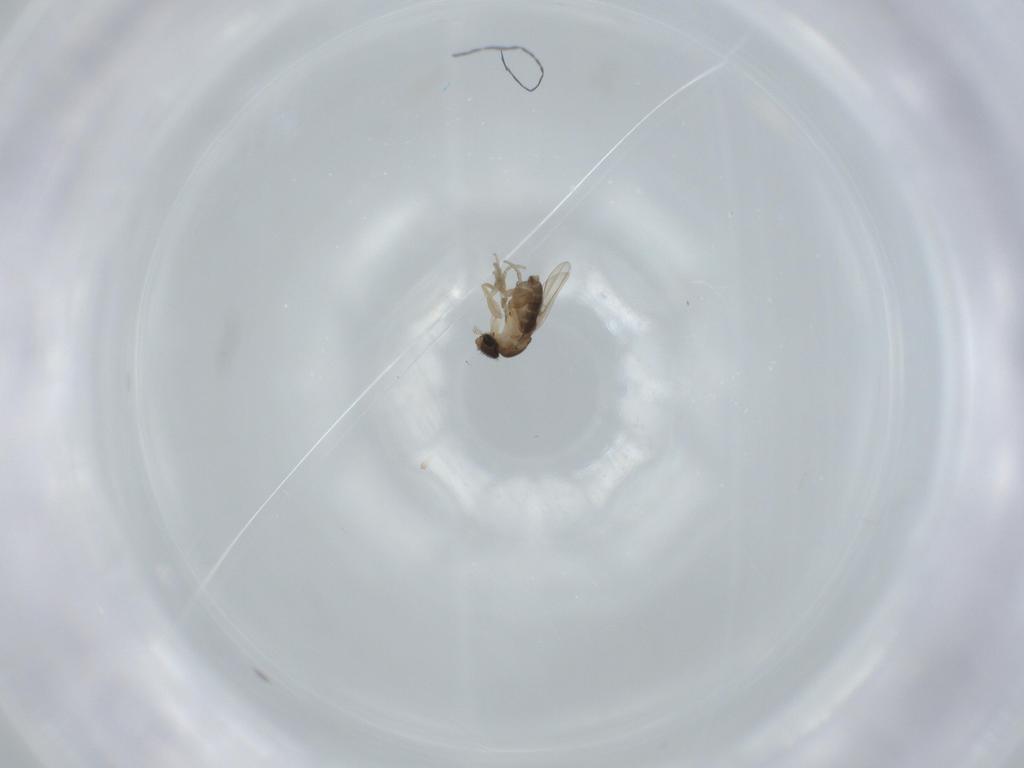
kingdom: Animalia
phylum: Arthropoda
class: Insecta
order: Diptera
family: Phoridae
